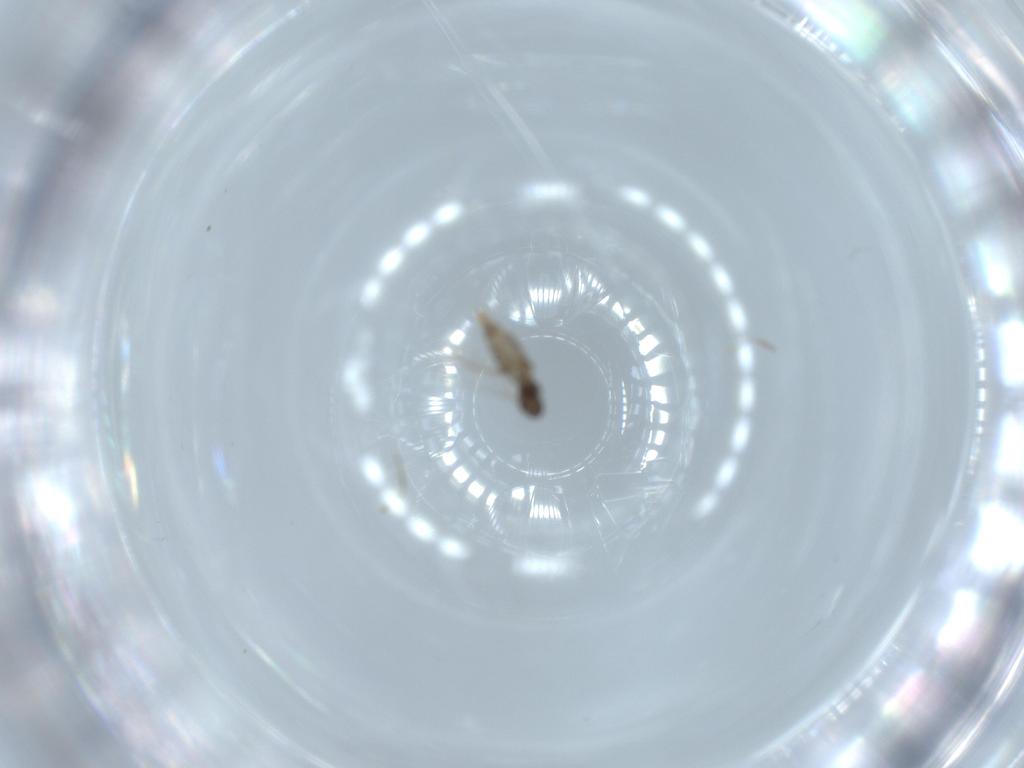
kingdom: Animalia
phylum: Arthropoda
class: Insecta
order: Diptera
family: Cecidomyiidae
